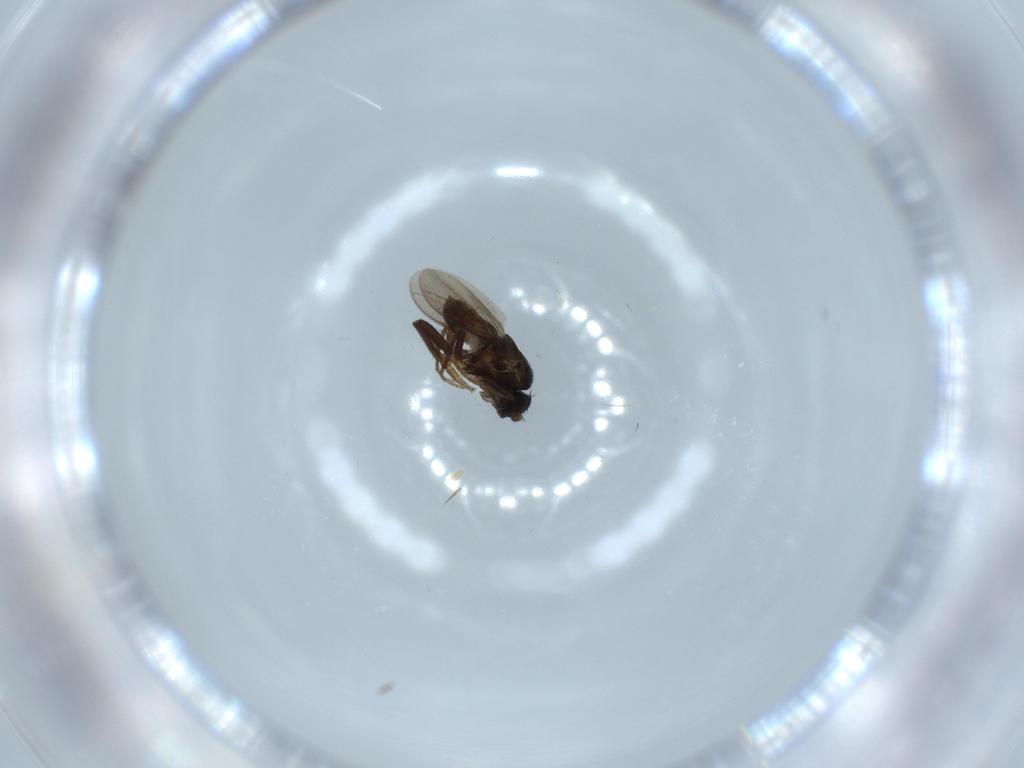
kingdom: Animalia
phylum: Arthropoda
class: Insecta
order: Diptera
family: Sphaeroceridae
